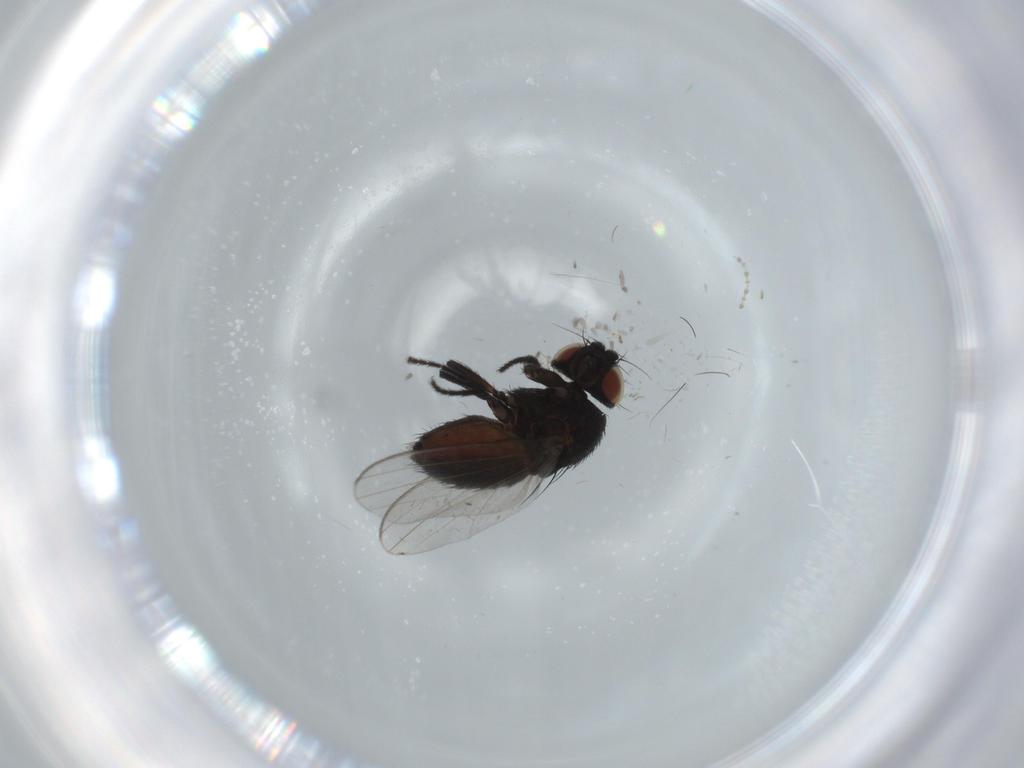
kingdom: Animalia
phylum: Arthropoda
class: Insecta
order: Diptera
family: Milichiidae
